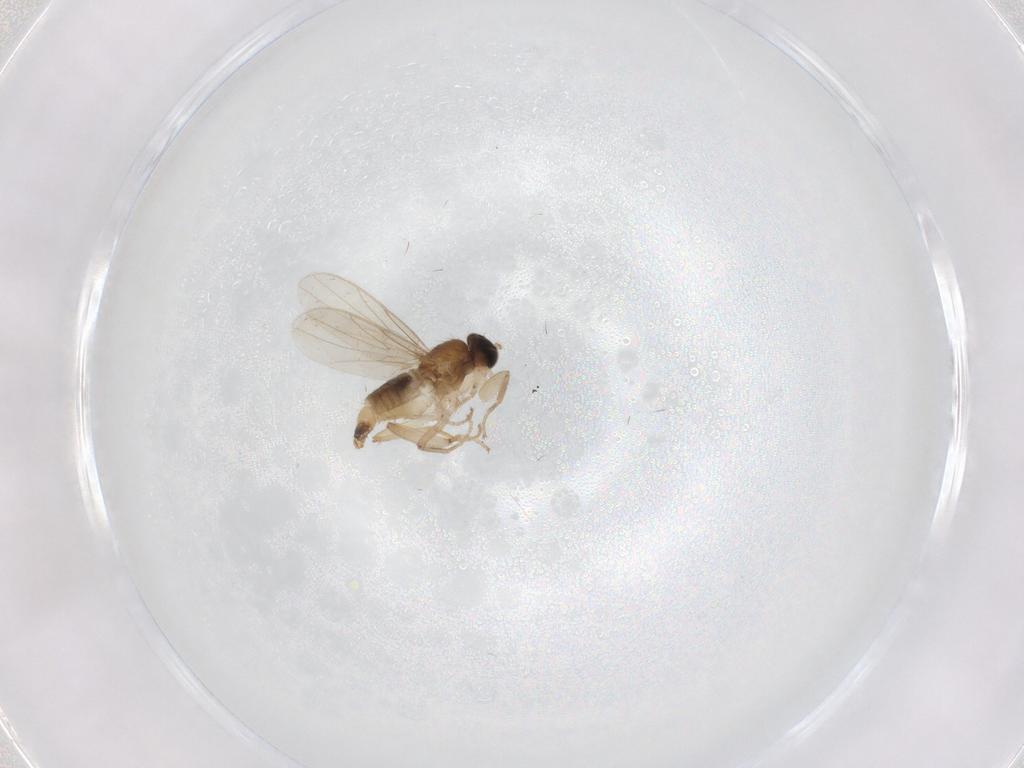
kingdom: Animalia
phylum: Arthropoda
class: Insecta
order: Diptera
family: Hybotidae
